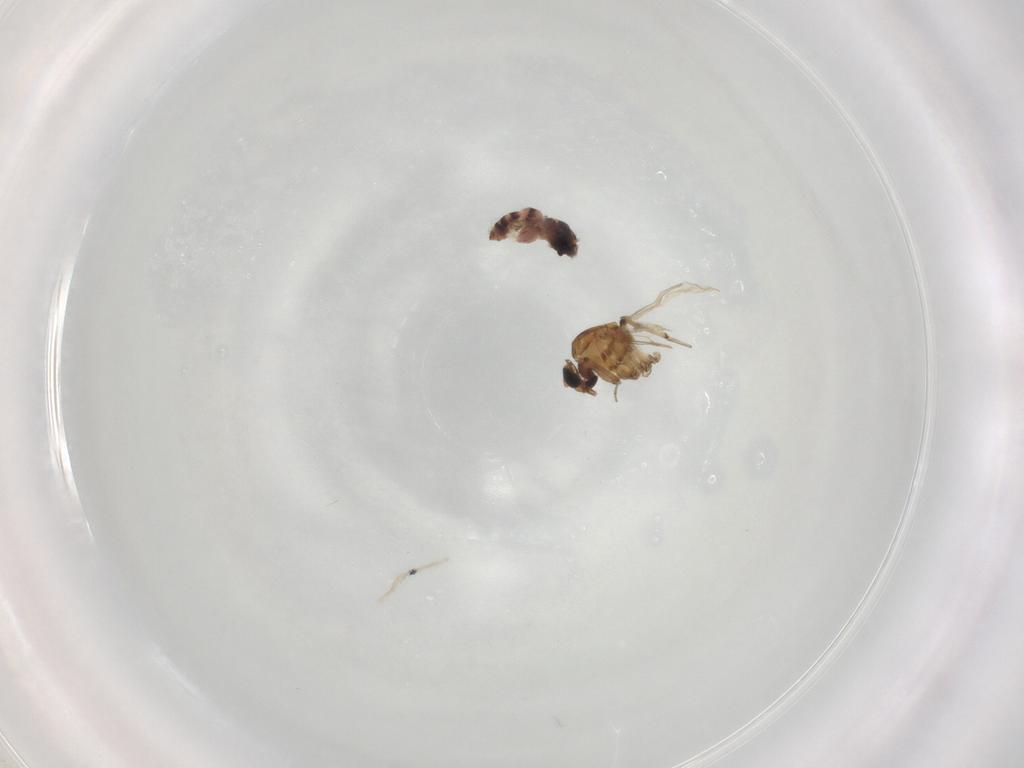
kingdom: Animalia
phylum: Arthropoda
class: Insecta
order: Diptera
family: Ceratopogonidae
